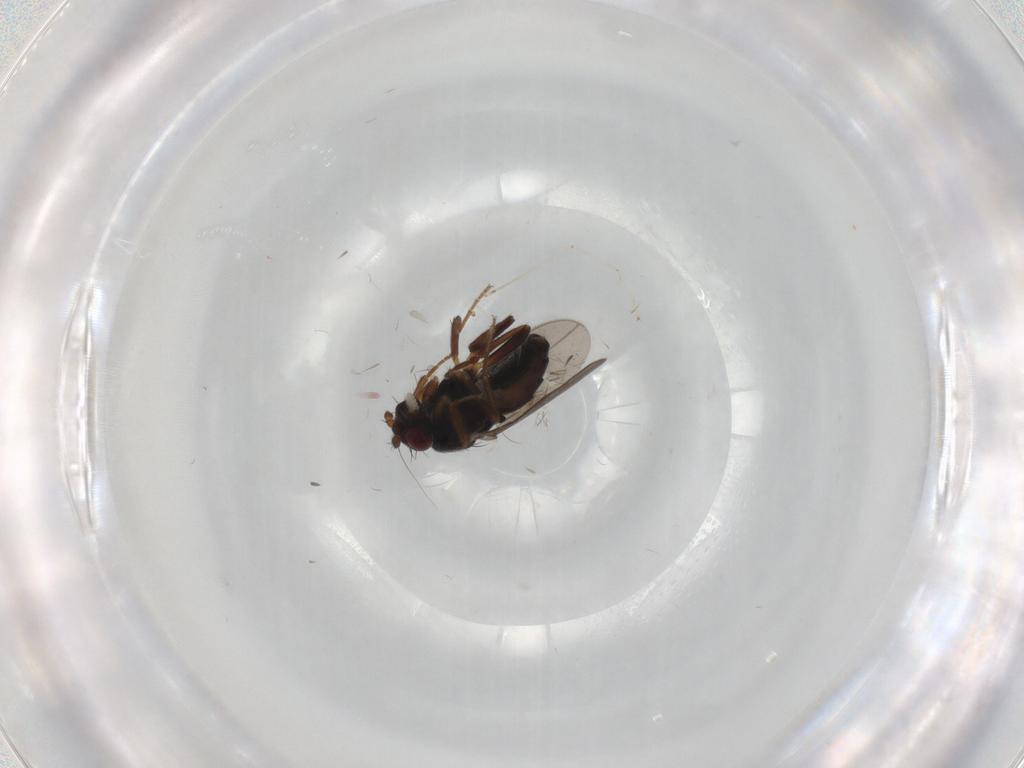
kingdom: Animalia
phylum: Arthropoda
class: Insecta
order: Diptera
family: Sphaeroceridae
